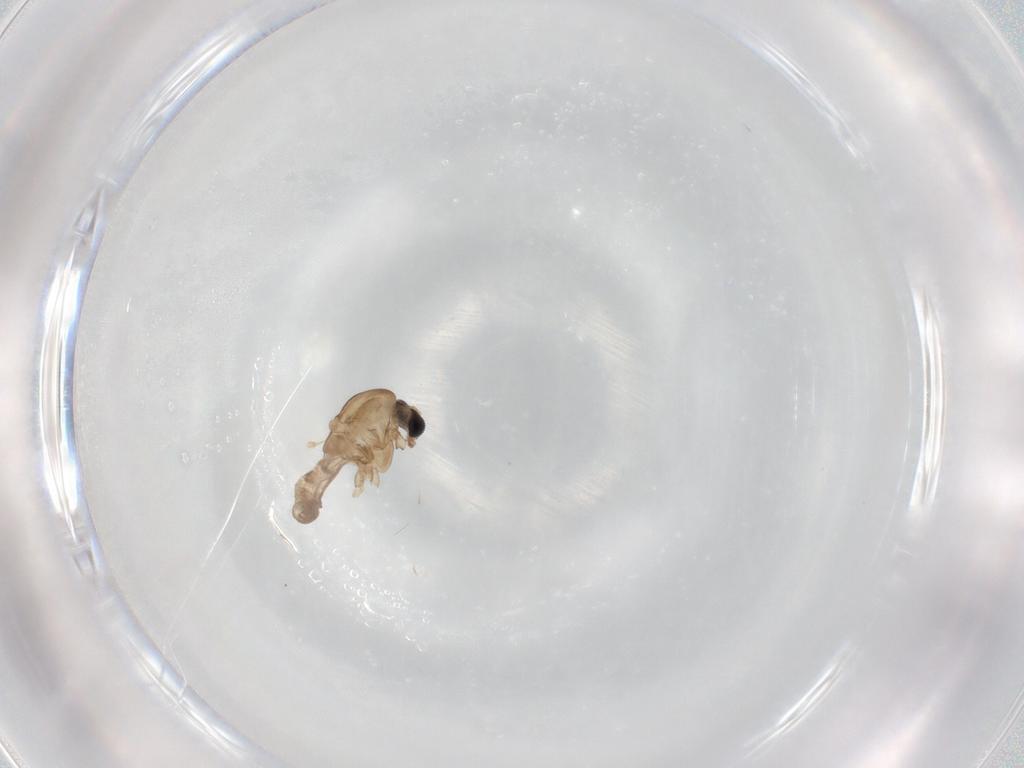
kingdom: Animalia
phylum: Arthropoda
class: Insecta
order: Diptera
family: Chironomidae
